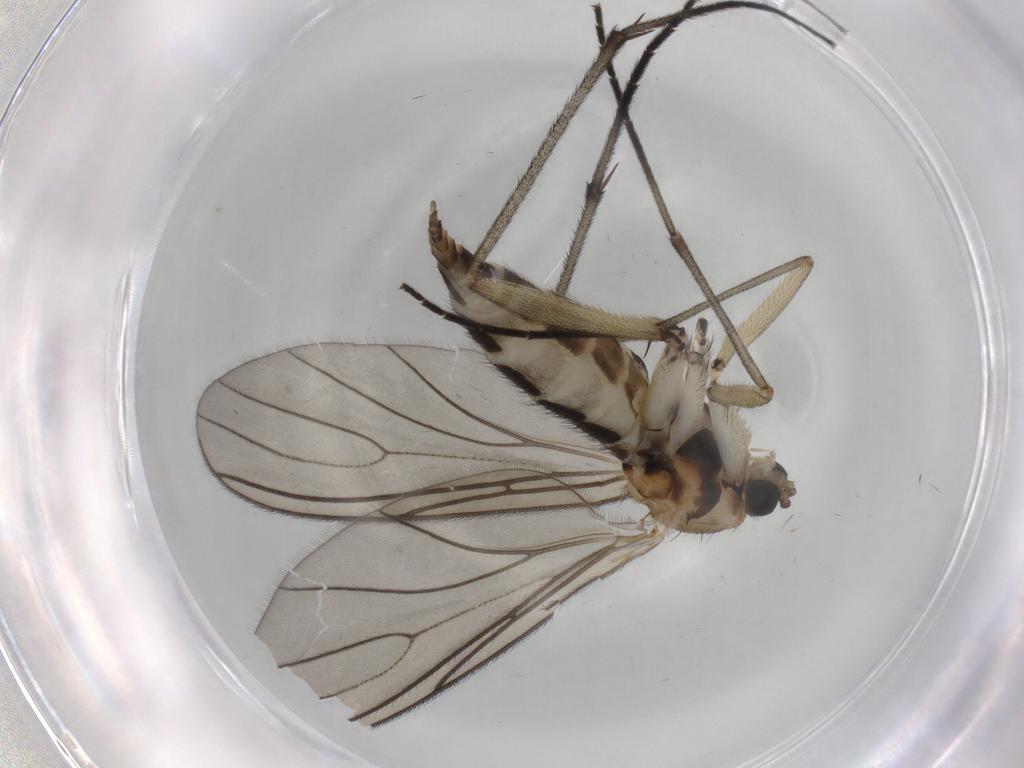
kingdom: Animalia
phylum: Arthropoda
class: Insecta
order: Diptera
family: Sciaridae
